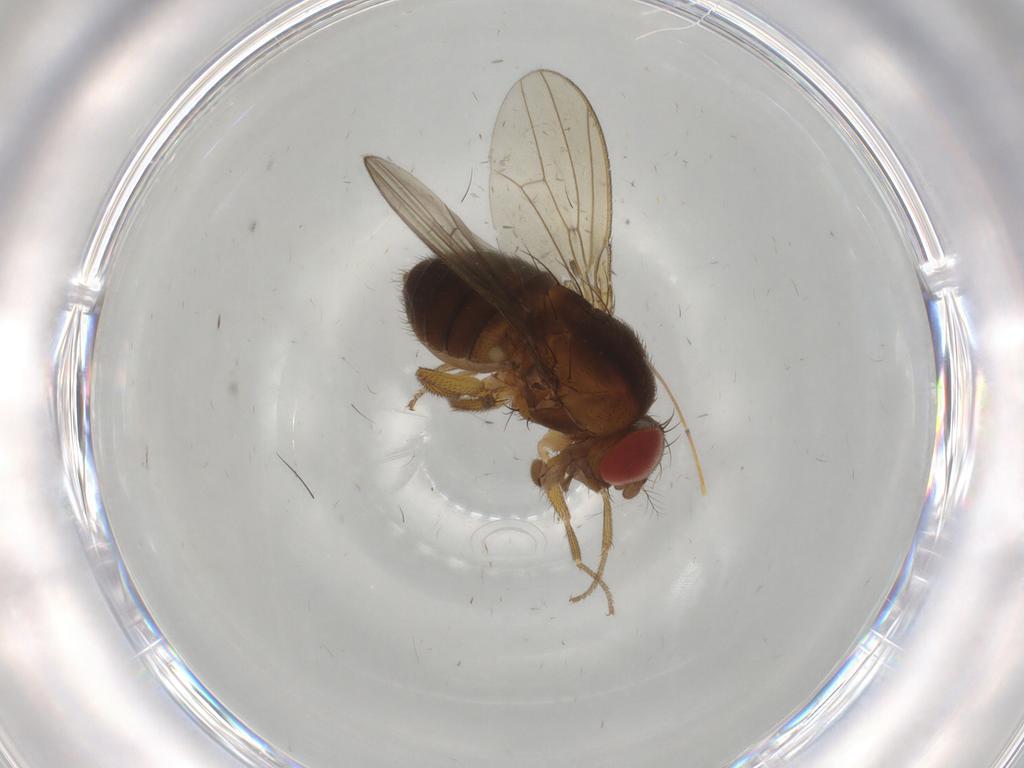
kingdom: Animalia
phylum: Arthropoda
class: Insecta
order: Diptera
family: Drosophilidae
